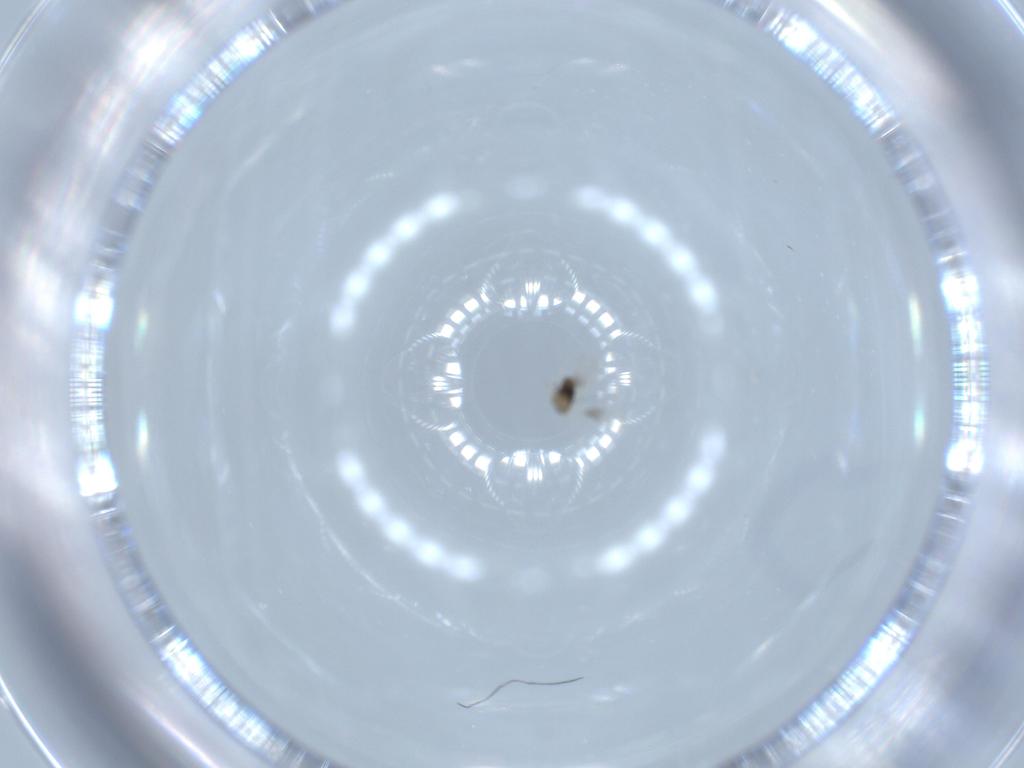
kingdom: Animalia
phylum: Arthropoda
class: Insecta
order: Hymenoptera
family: Aphelinidae
